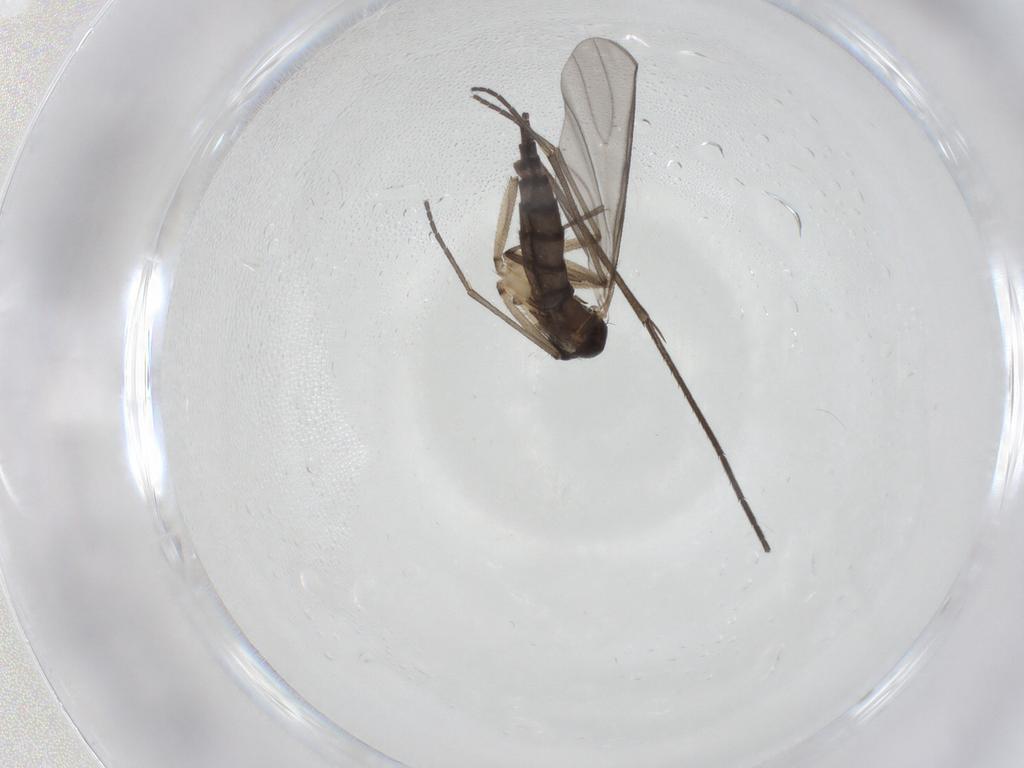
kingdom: Animalia
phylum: Arthropoda
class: Insecta
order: Diptera
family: Sciaridae
